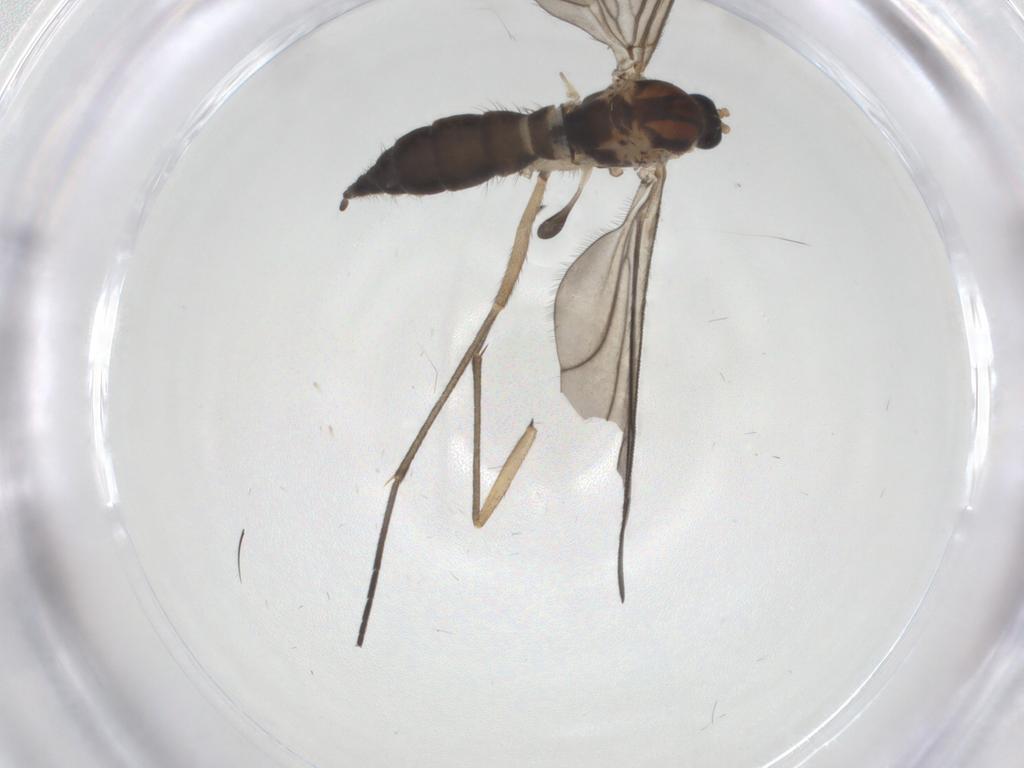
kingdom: Animalia
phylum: Arthropoda
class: Insecta
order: Diptera
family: Sciaridae
